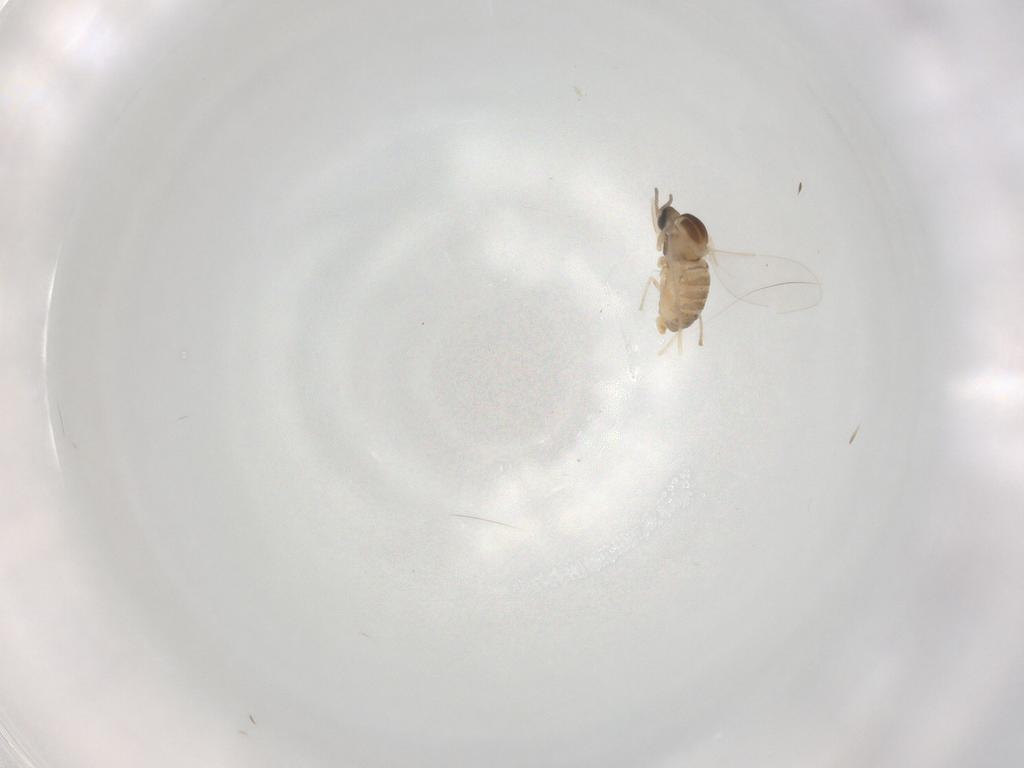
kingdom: Animalia
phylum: Arthropoda
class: Insecta
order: Diptera
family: Cecidomyiidae
